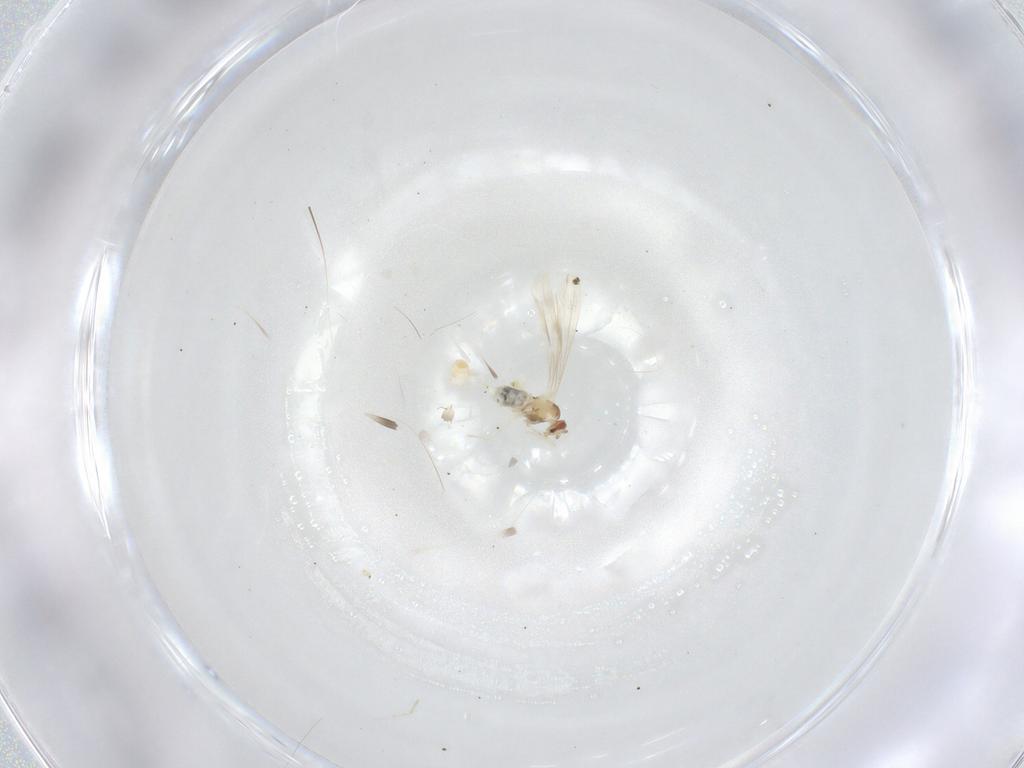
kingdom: Animalia
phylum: Arthropoda
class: Insecta
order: Diptera
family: Cecidomyiidae
